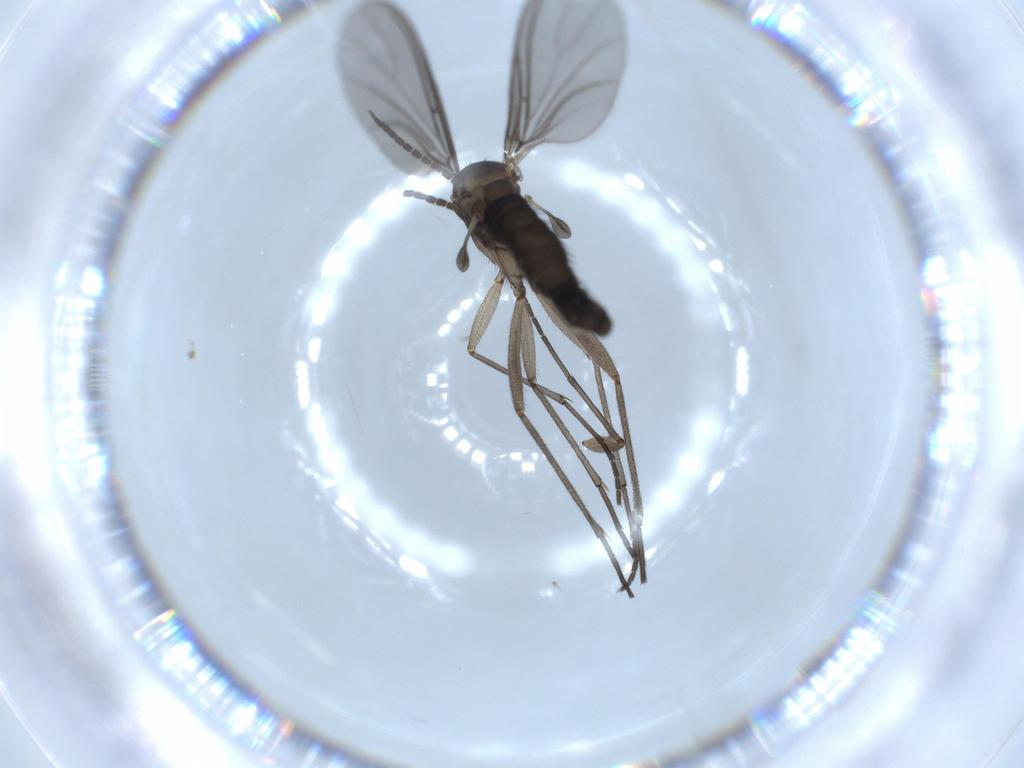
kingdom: Animalia
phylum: Arthropoda
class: Insecta
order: Diptera
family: Sciaridae
